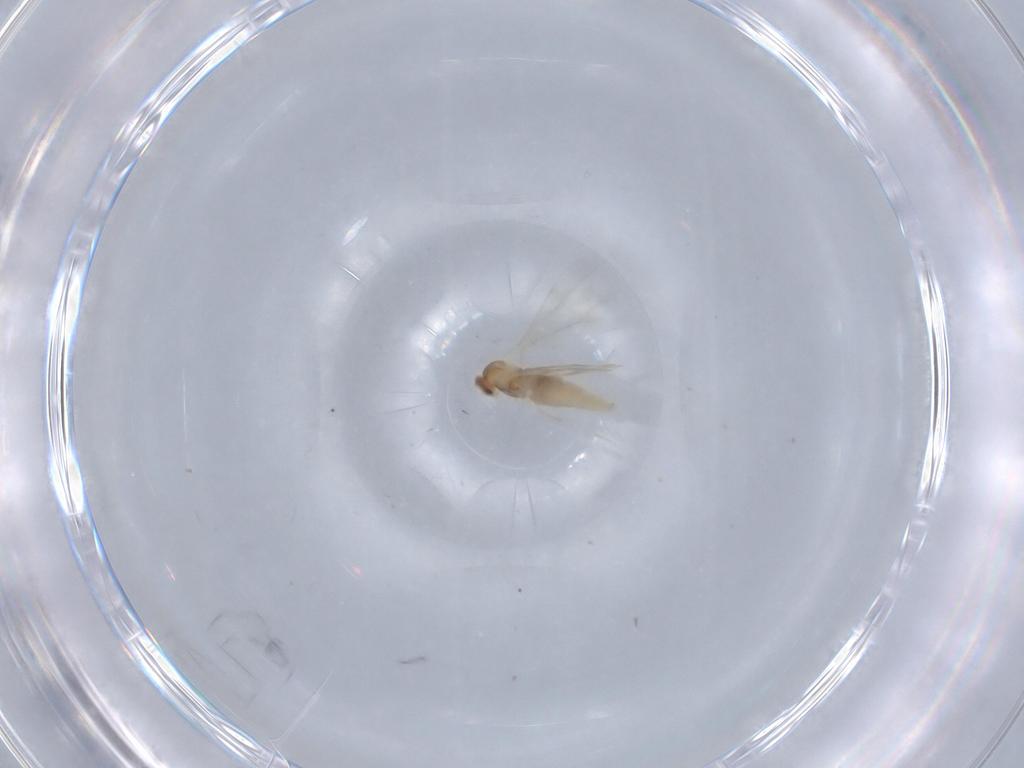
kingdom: Animalia
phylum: Arthropoda
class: Insecta
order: Diptera
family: Cecidomyiidae
